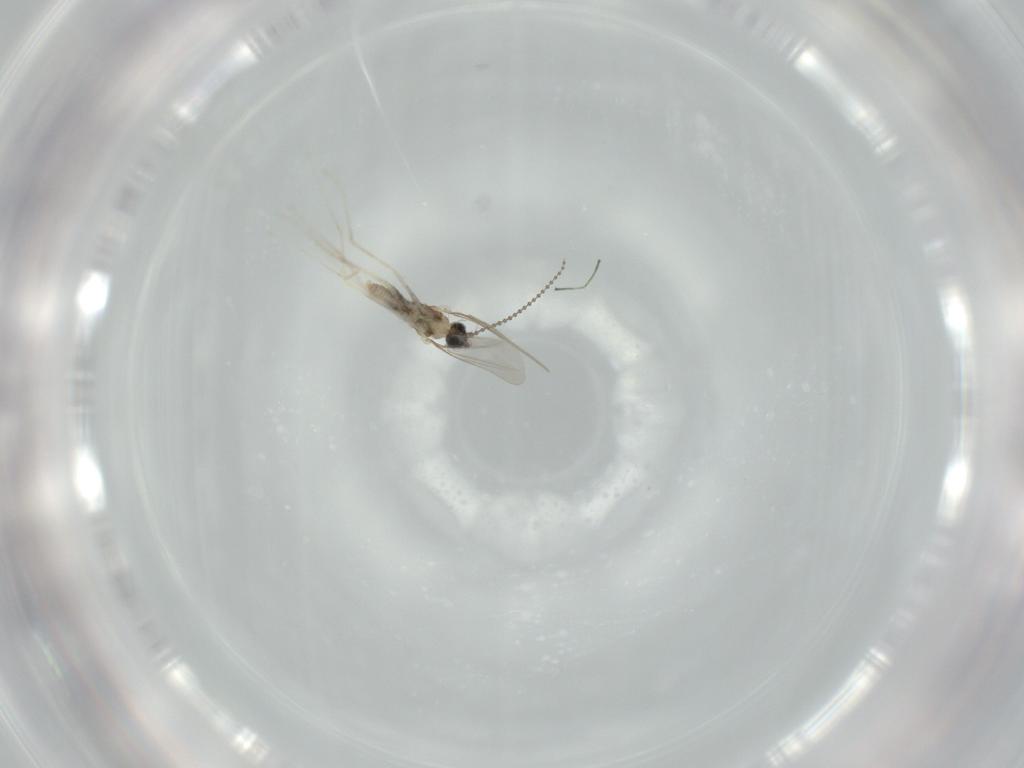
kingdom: Animalia
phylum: Arthropoda
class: Insecta
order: Diptera
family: Cecidomyiidae
